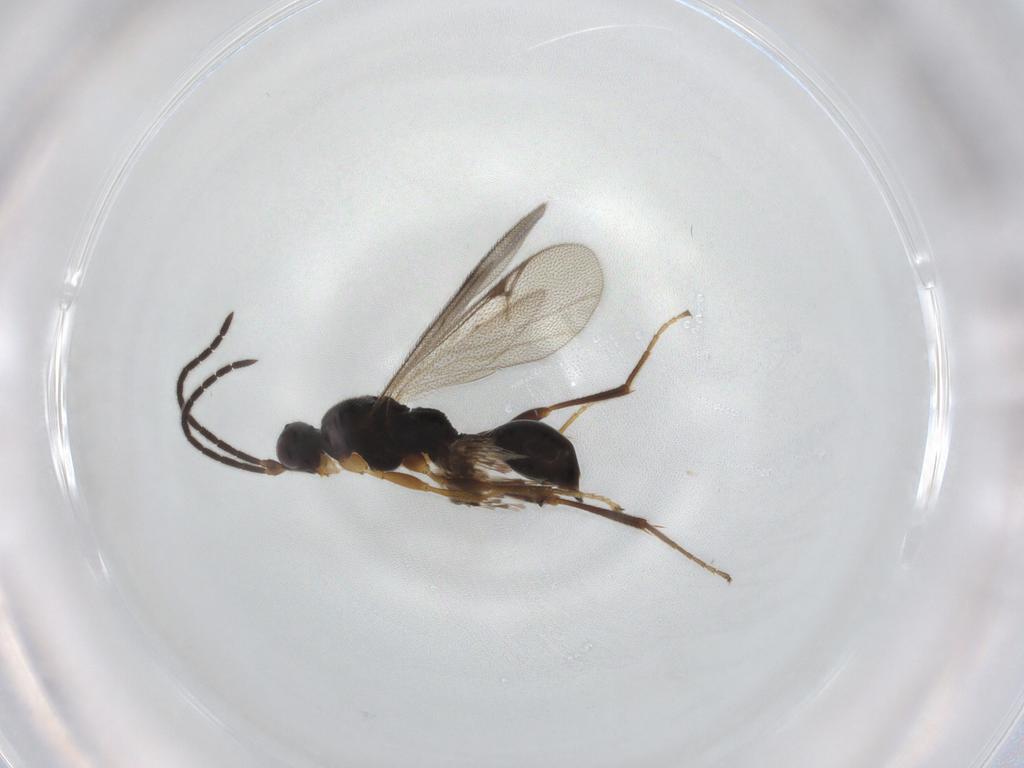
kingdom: Animalia
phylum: Arthropoda
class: Insecta
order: Hymenoptera
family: Proctotrupidae
